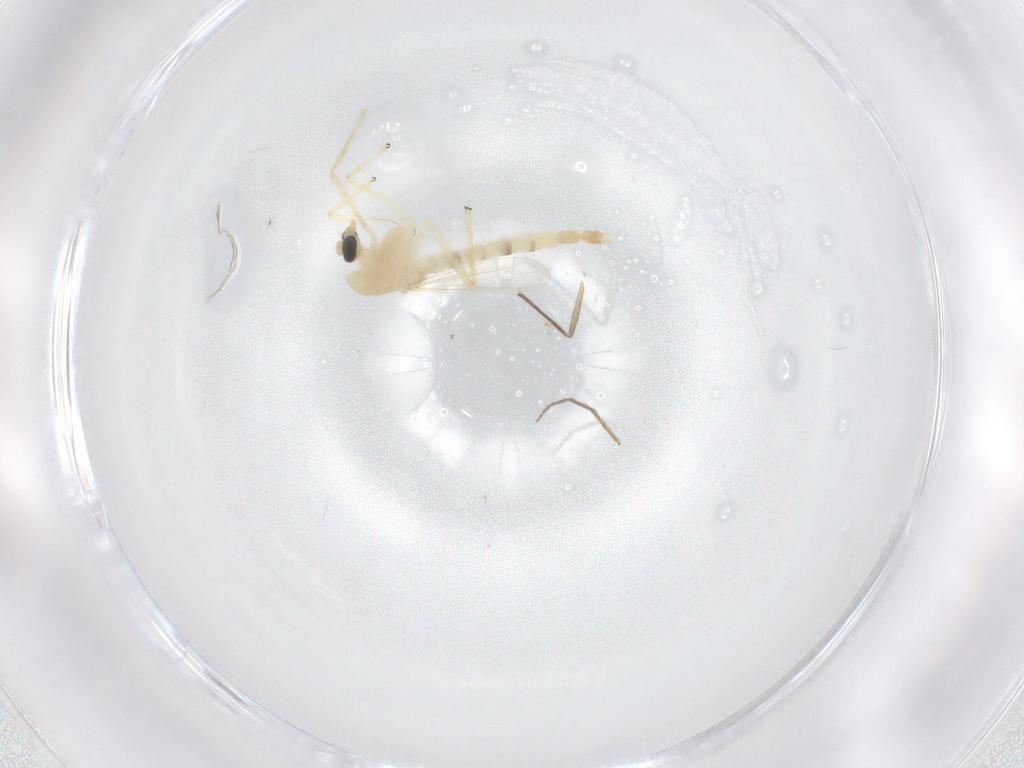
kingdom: Animalia
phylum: Arthropoda
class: Insecta
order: Diptera
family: Chironomidae
